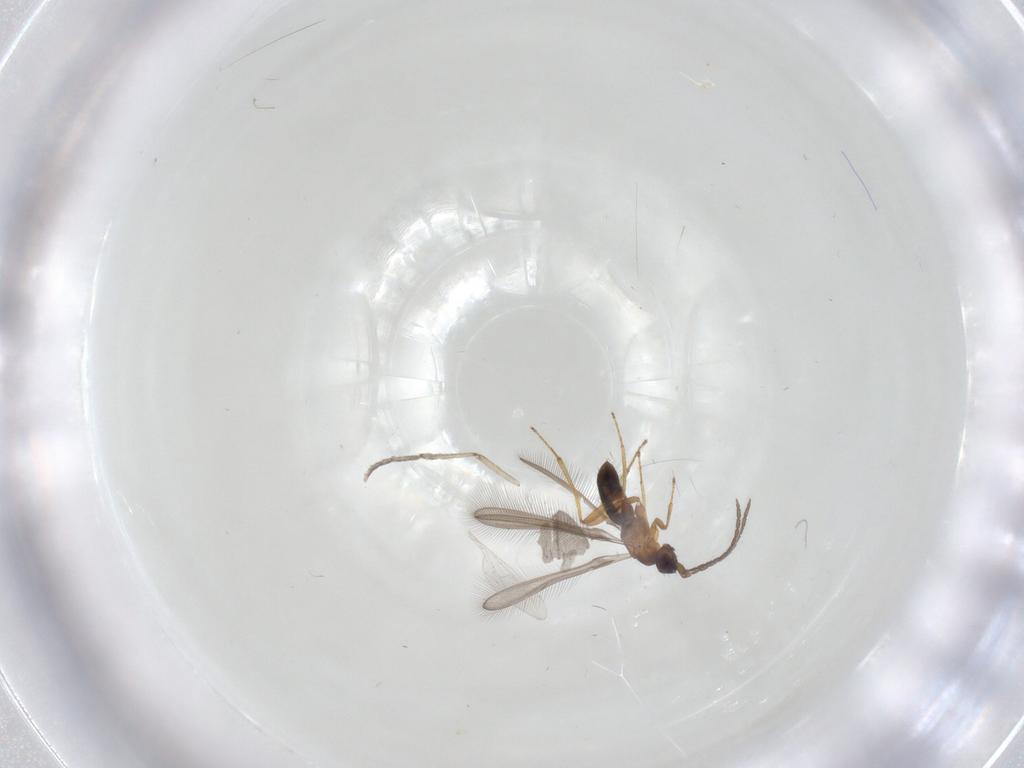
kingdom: Animalia
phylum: Arthropoda
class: Insecta
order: Hymenoptera
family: Mymaridae
